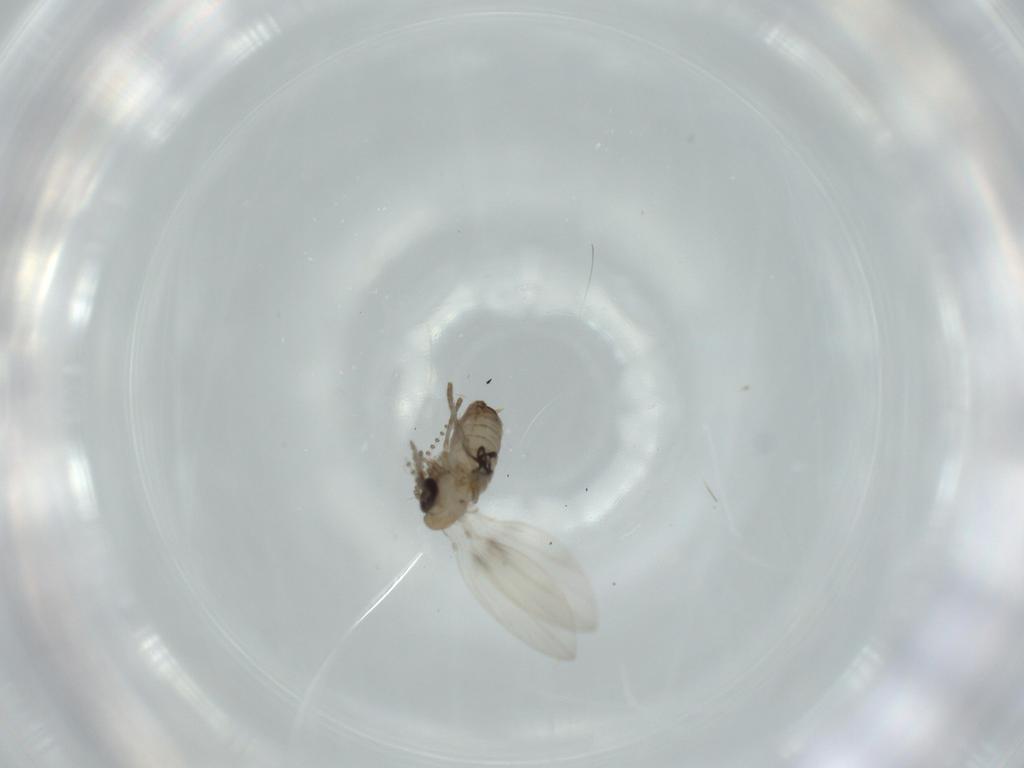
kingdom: Animalia
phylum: Arthropoda
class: Insecta
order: Diptera
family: Psychodidae
